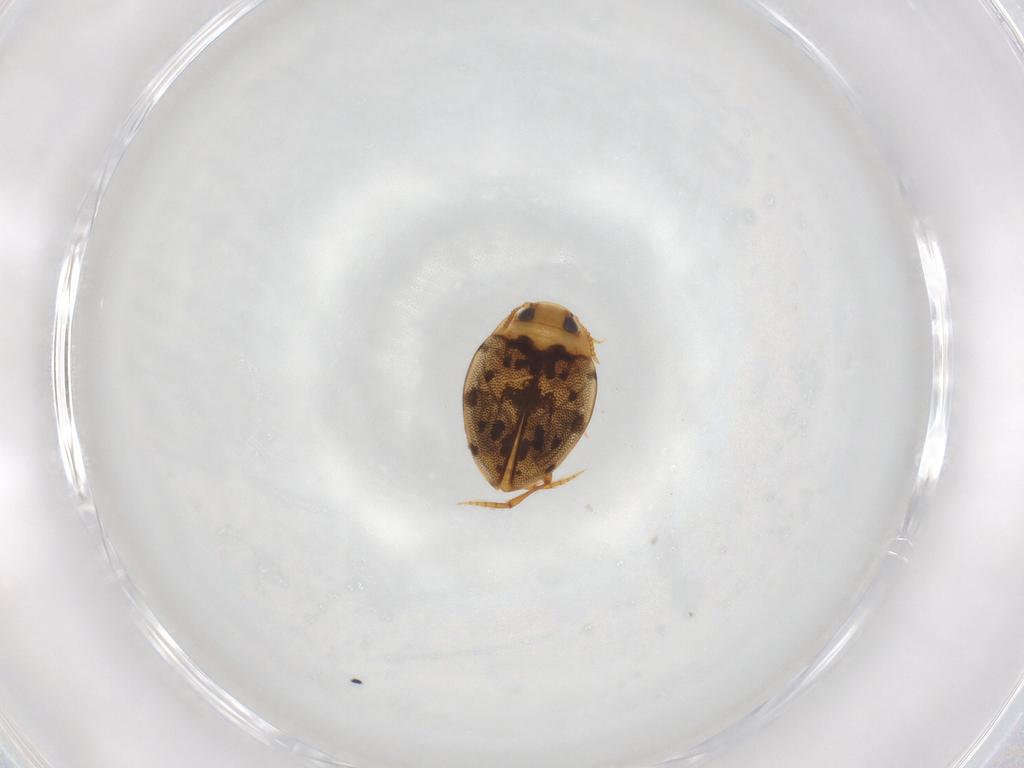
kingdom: Animalia
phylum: Arthropoda
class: Insecta
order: Coleoptera
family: Dytiscidae
